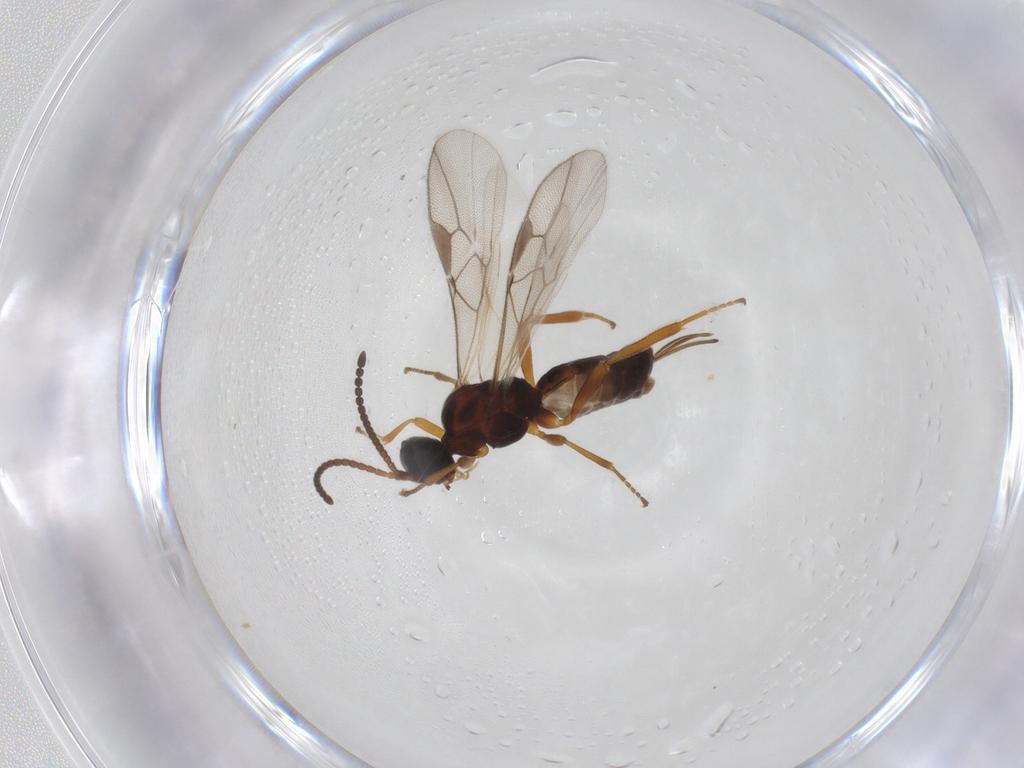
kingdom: Animalia
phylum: Arthropoda
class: Insecta
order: Hymenoptera
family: Braconidae
